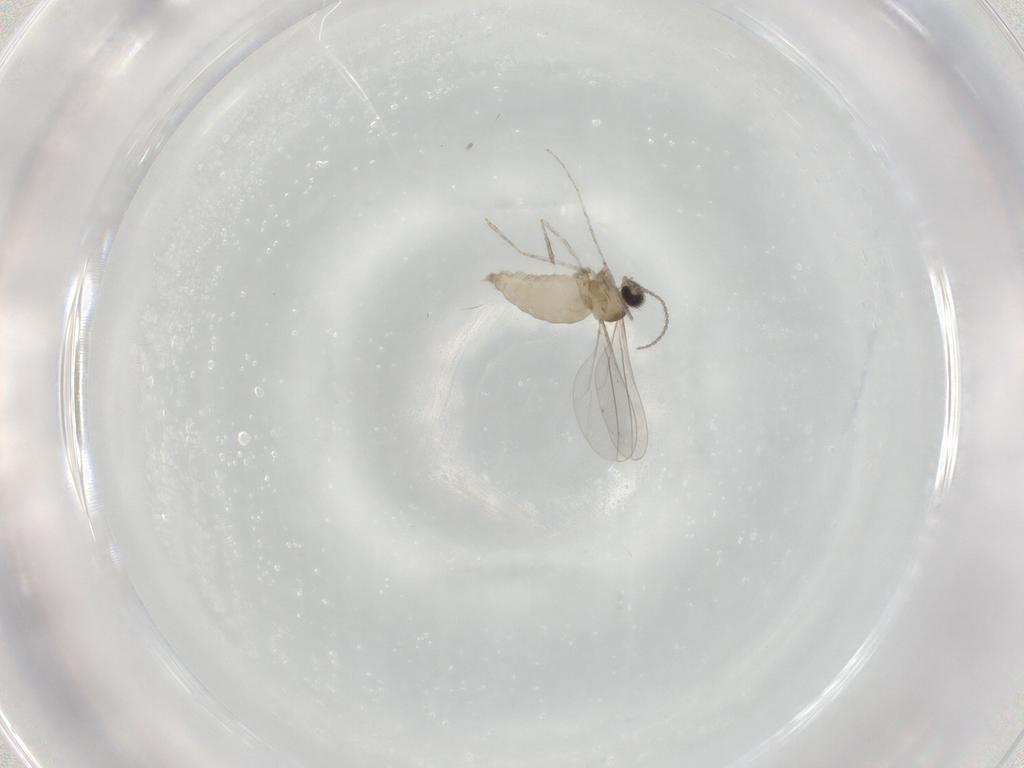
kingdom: Animalia
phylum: Arthropoda
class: Insecta
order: Diptera
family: Cecidomyiidae
